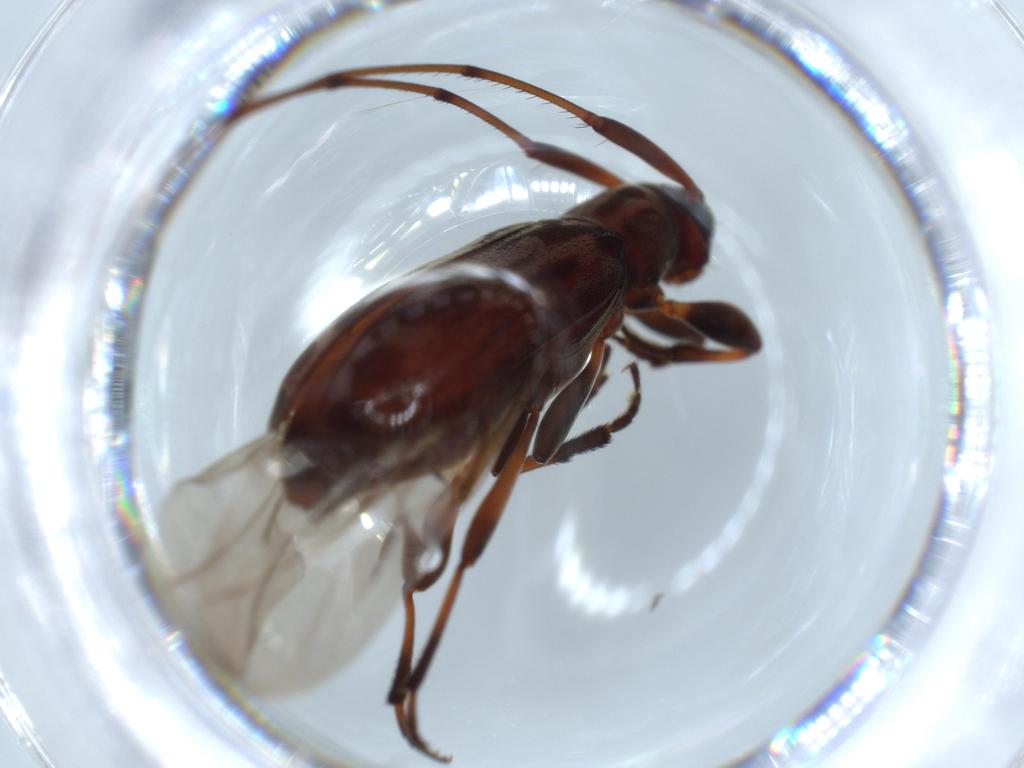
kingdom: Animalia
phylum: Arthropoda
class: Insecta
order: Coleoptera
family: Cerambycidae
